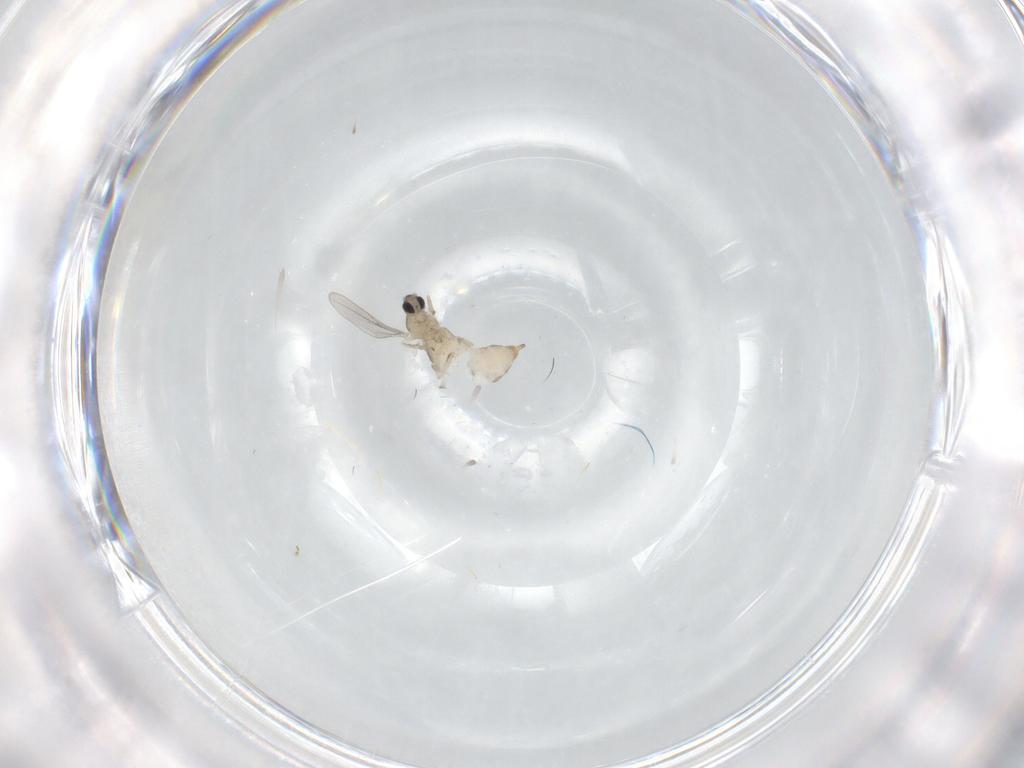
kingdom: Animalia
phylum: Arthropoda
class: Insecta
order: Diptera
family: Cecidomyiidae
